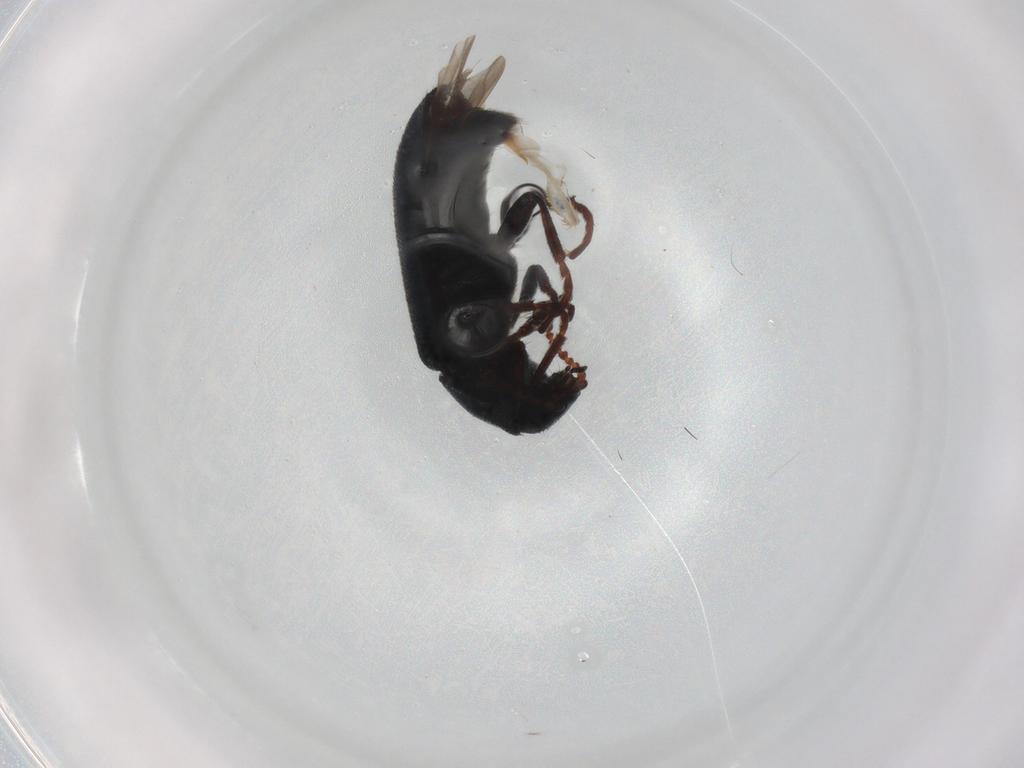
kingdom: Animalia
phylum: Arthropoda
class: Insecta
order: Coleoptera
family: Melyridae
